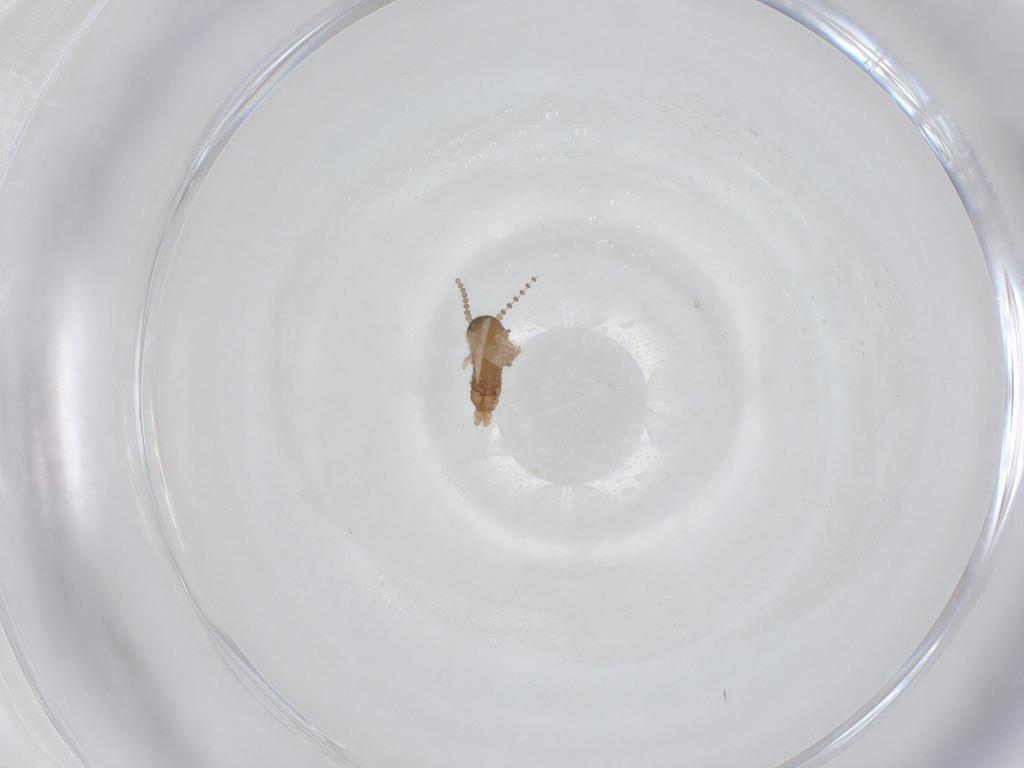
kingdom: Animalia
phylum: Arthropoda
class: Insecta
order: Diptera
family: Psychodidae
